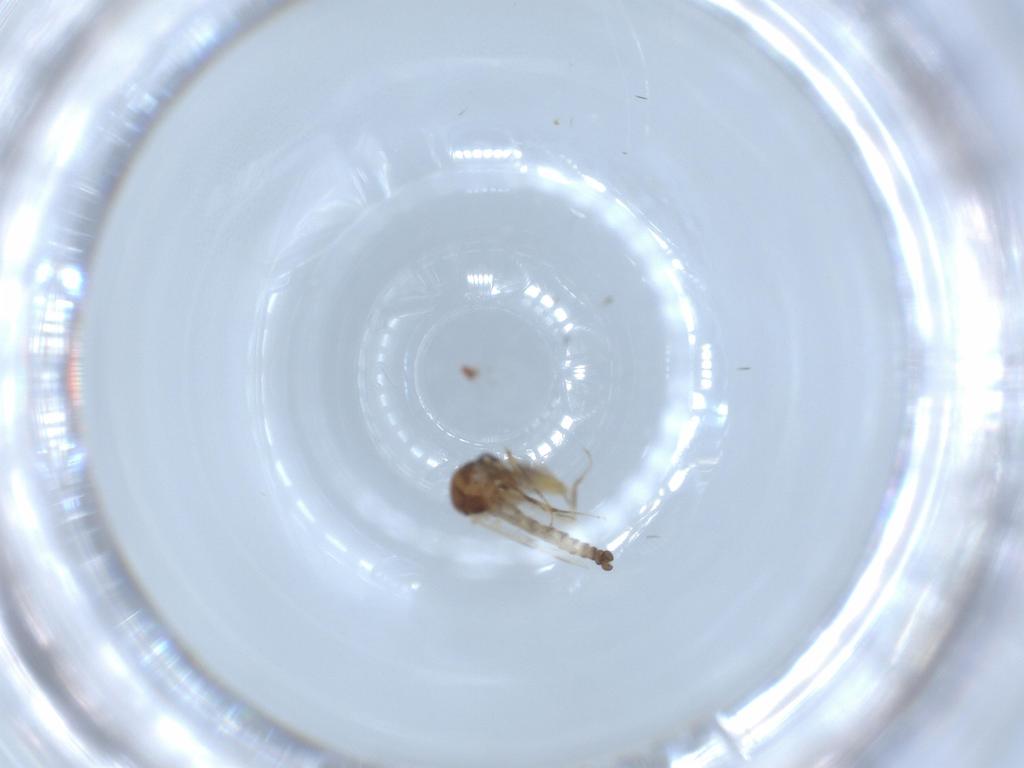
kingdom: Animalia
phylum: Arthropoda
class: Insecta
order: Diptera
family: Ceratopogonidae
